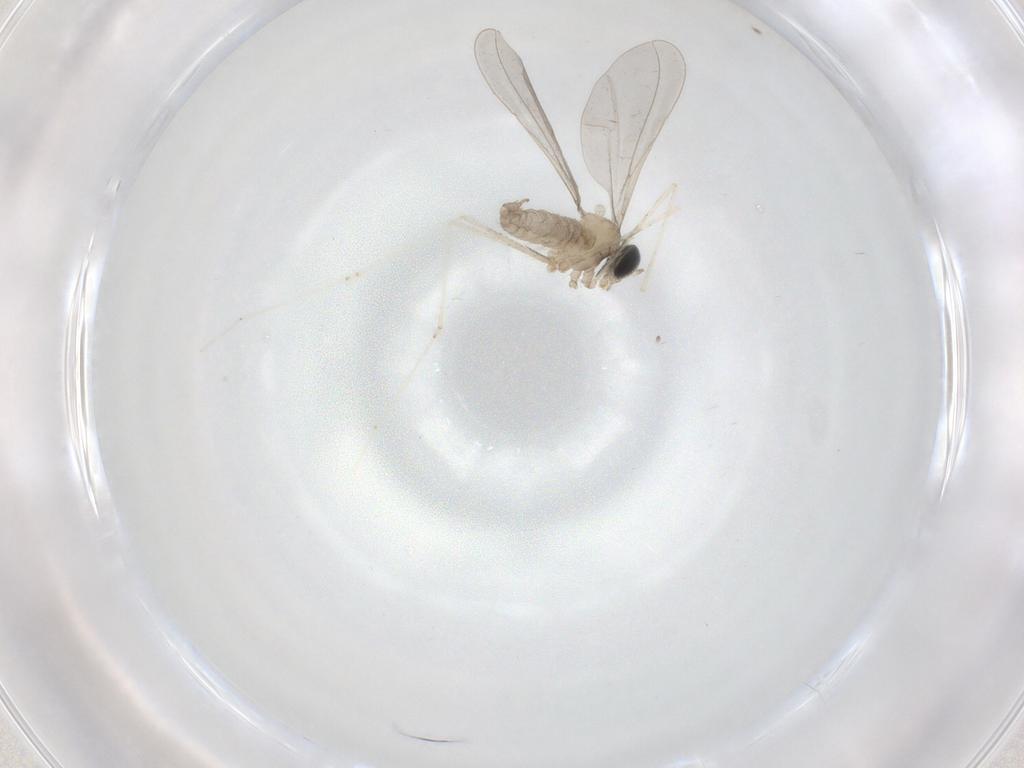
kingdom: Animalia
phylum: Arthropoda
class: Insecta
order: Diptera
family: Cecidomyiidae
